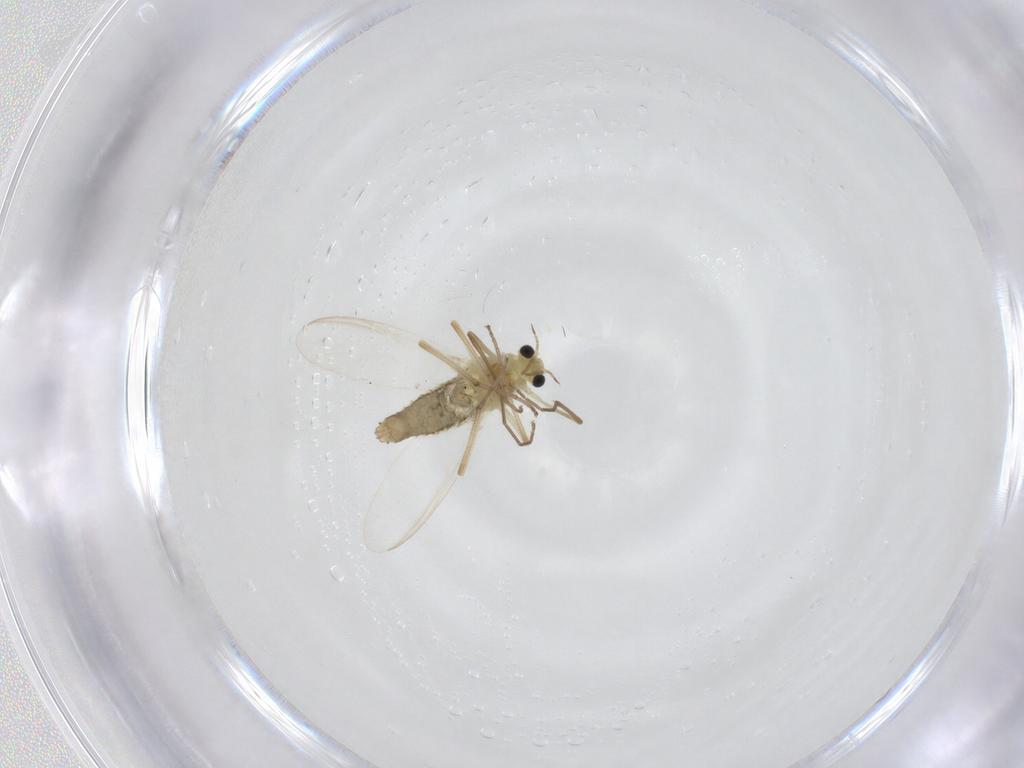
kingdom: Animalia
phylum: Arthropoda
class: Insecta
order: Diptera
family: Chironomidae
